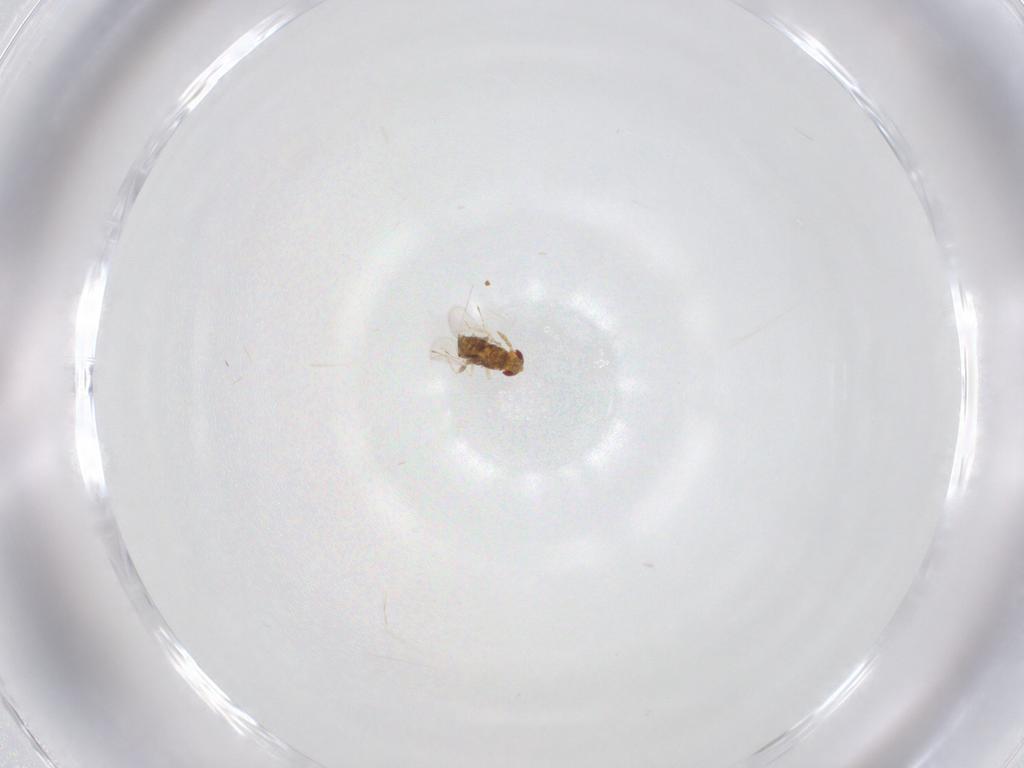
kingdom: Animalia
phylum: Arthropoda
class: Insecta
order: Hymenoptera
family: Trichogrammatidae
